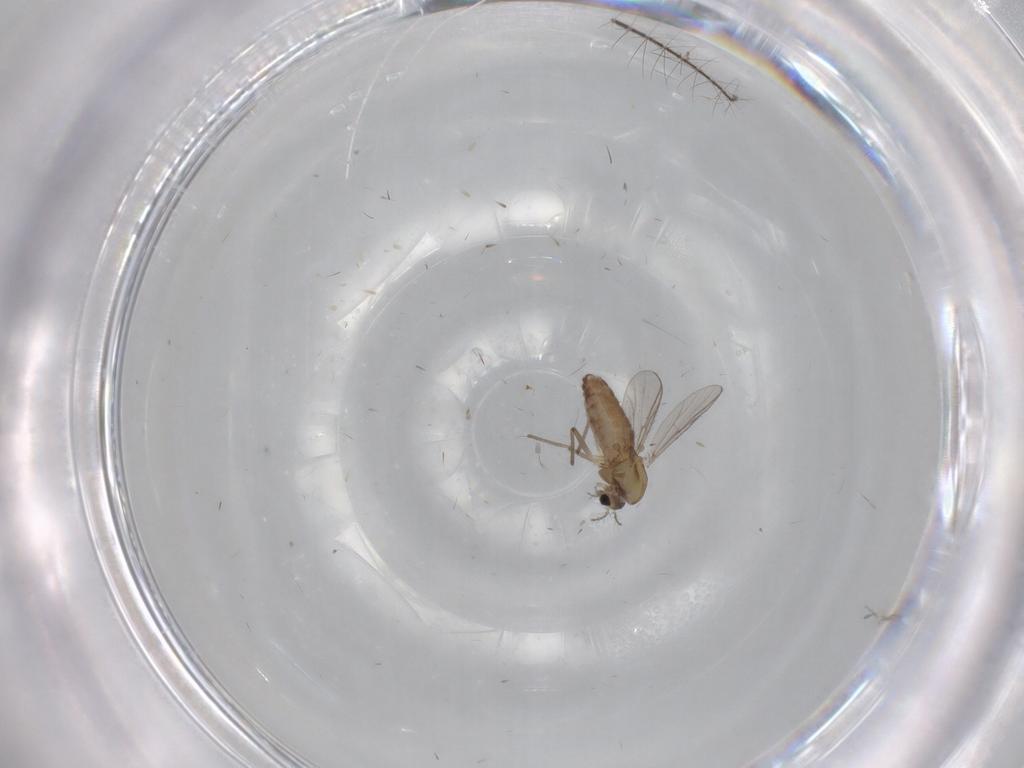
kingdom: Animalia
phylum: Arthropoda
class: Insecta
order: Diptera
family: Chironomidae
